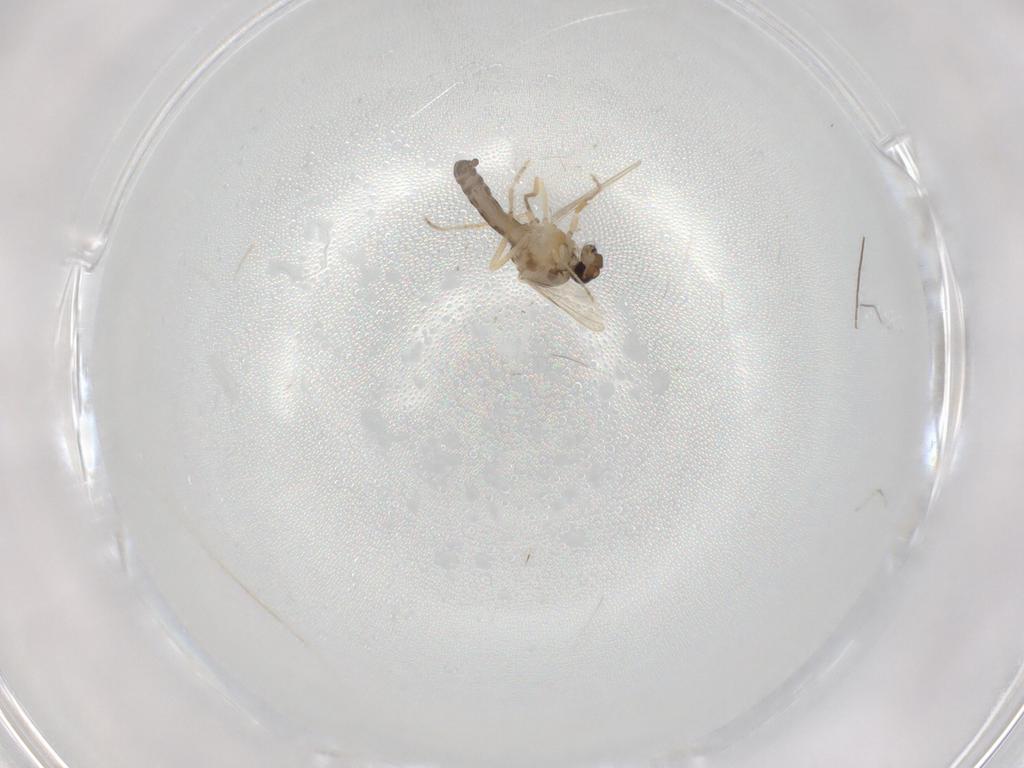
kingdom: Animalia
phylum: Arthropoda
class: Insecta
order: Diptera
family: Ceratopogonidae
